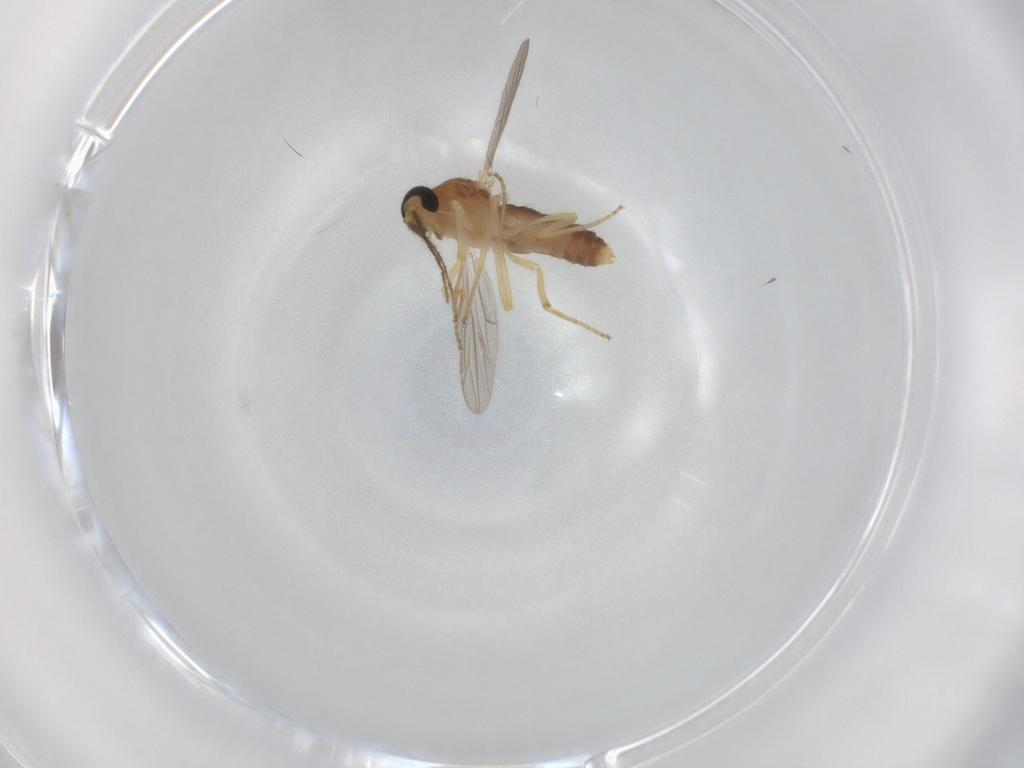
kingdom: Animalia
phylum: Arthropoda
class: Insecta
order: Diptera
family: Ceratopogonidae
